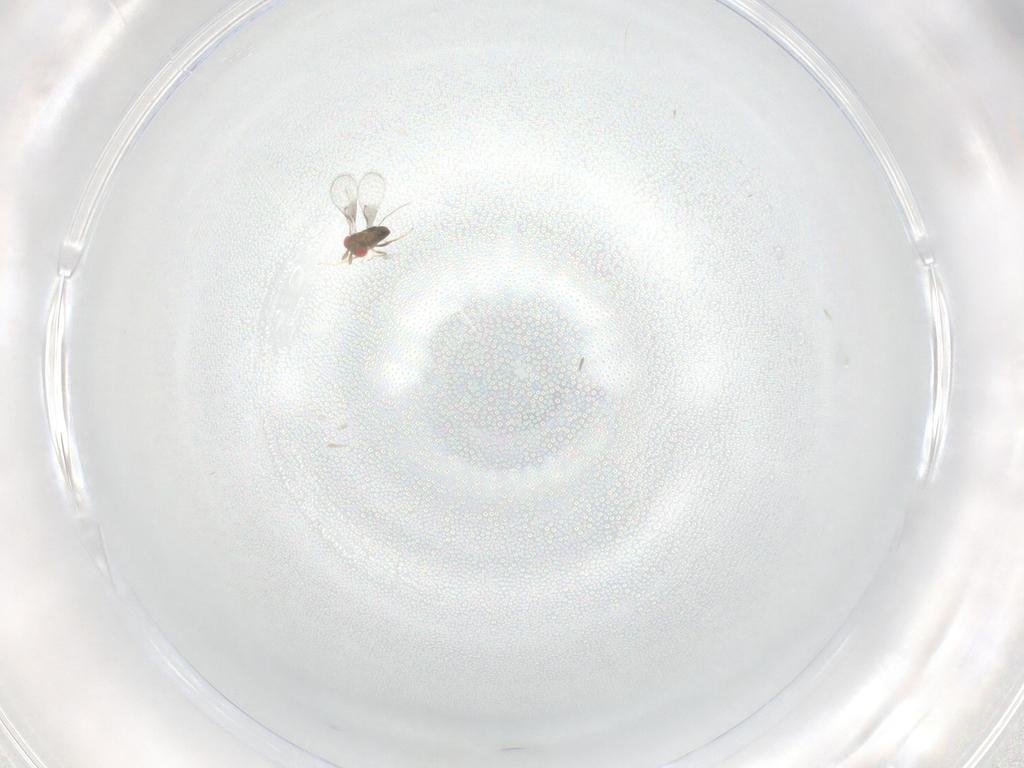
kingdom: Animalia
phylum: Arthropoda
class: Insecta
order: Hymenoptera
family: Trichogrammatidae
